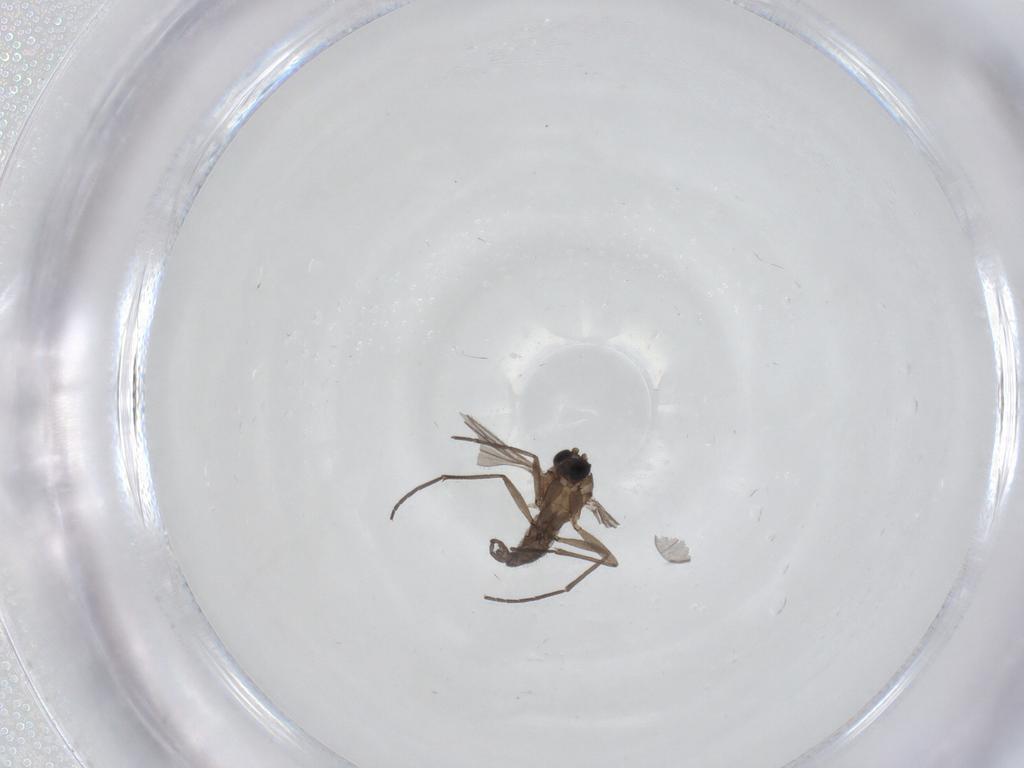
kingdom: Animalia
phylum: Arthropoda
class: Insecta
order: Diptera
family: Sciaridae
